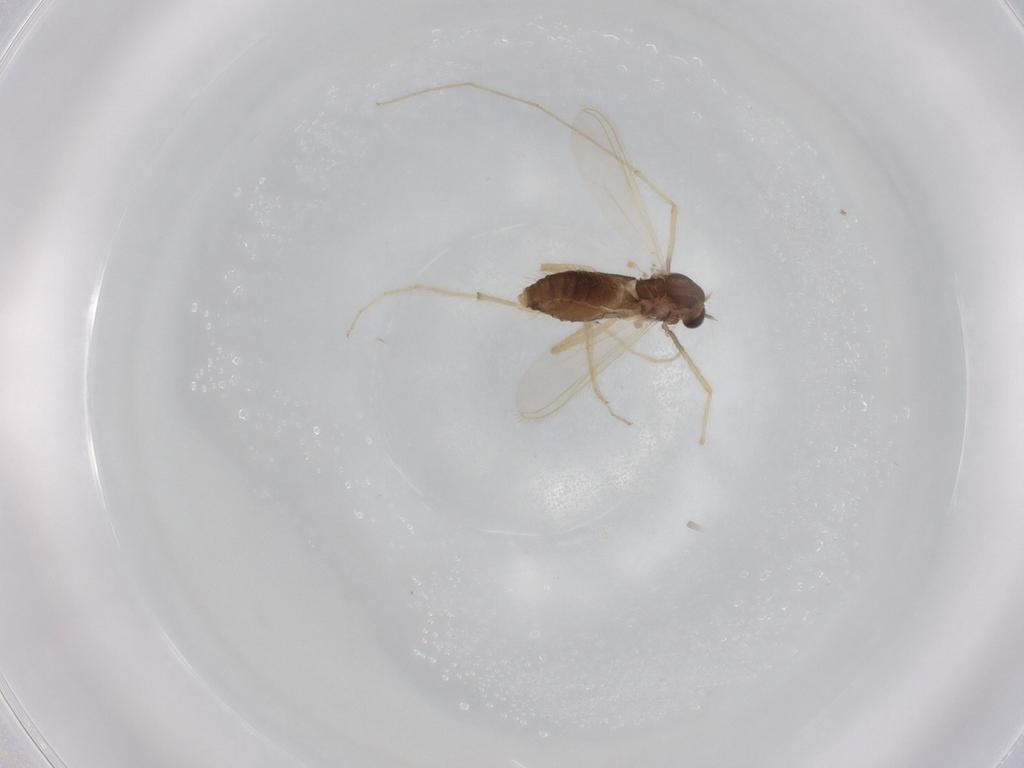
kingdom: Animalia
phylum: Arthropoda
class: Insecta
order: Diptera
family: Chironomidae
